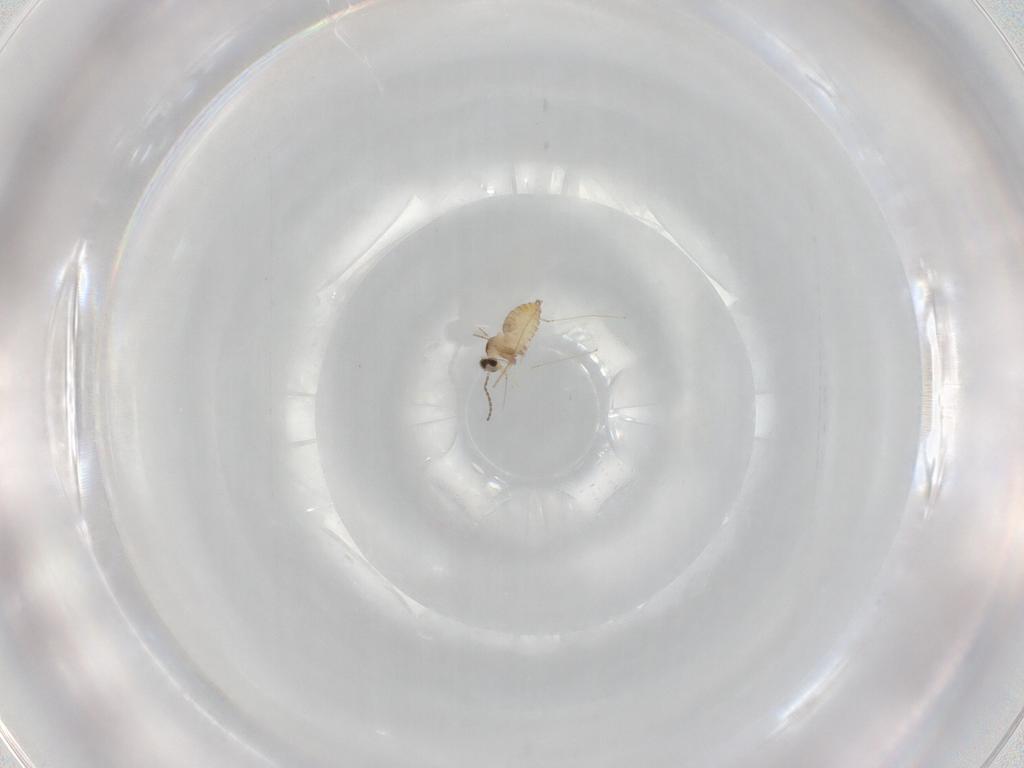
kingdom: Animalia
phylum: Arthropoda
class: Insecta
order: Diptera
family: Cecidomyiidae
